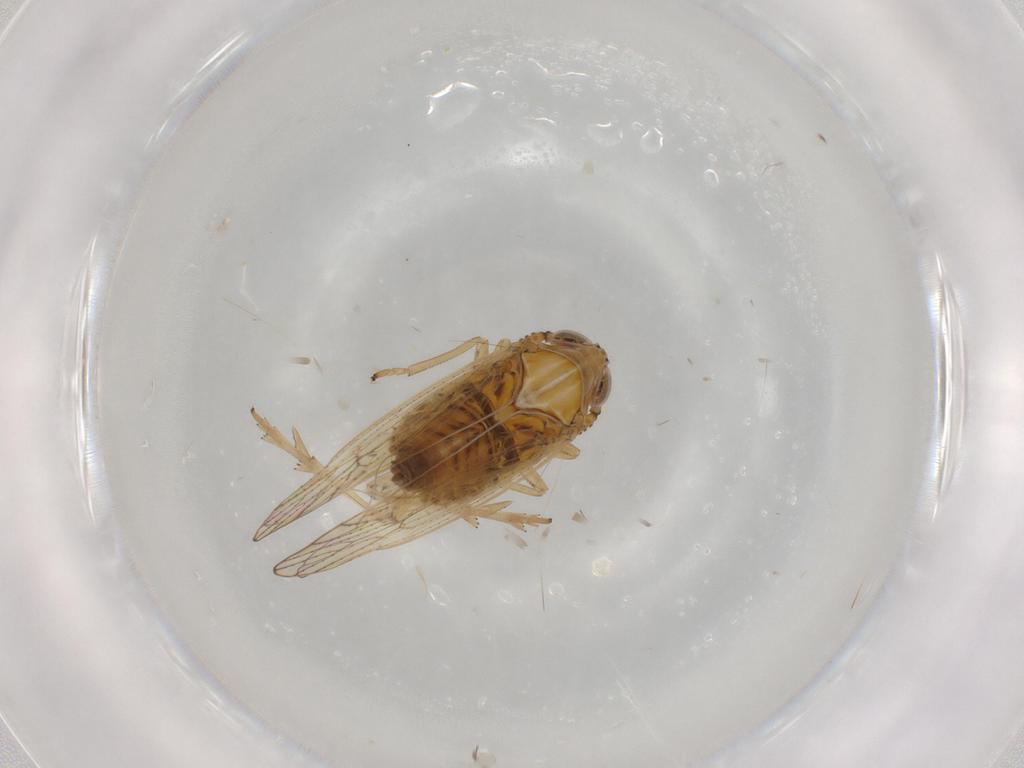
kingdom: Animalia
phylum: Arthropoda
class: Insecta
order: Hemiptera
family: Delphacidae
